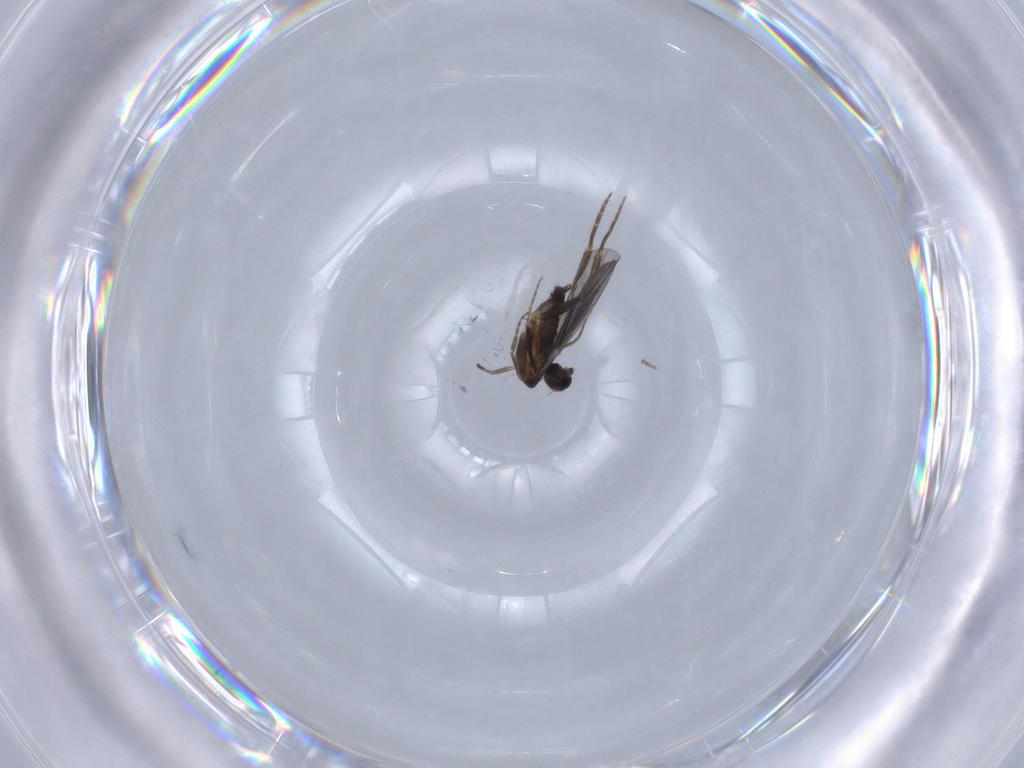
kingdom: Animalia
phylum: Arthropoda
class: Insecta
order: Diptera
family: Phoridae
